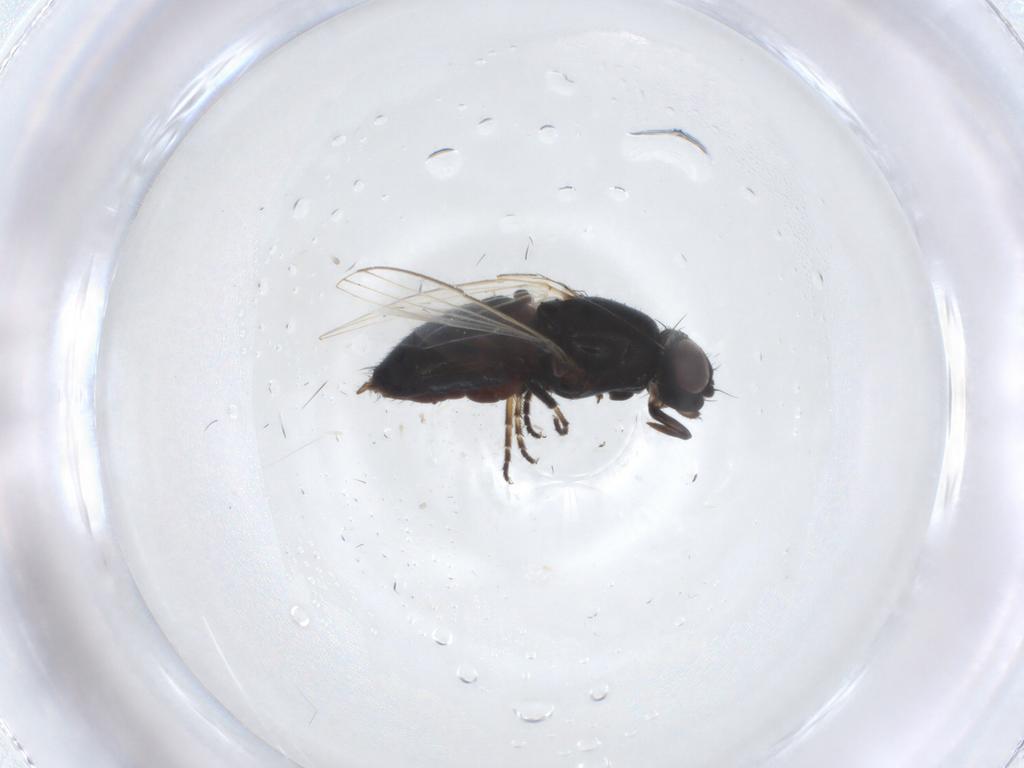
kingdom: Animalia
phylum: Arthropoda
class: Insecta
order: Diptera
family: Milichiidae
